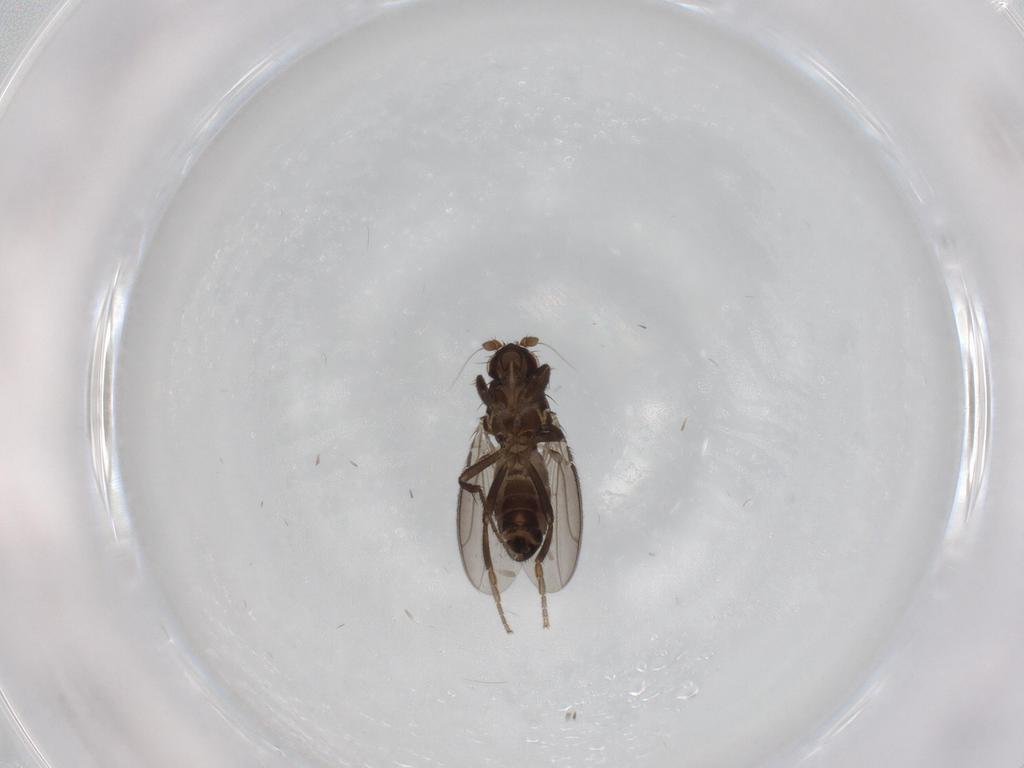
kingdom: Animalia
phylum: Arthropoda
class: Insecta
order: Diptera
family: Sphaeroceridae
